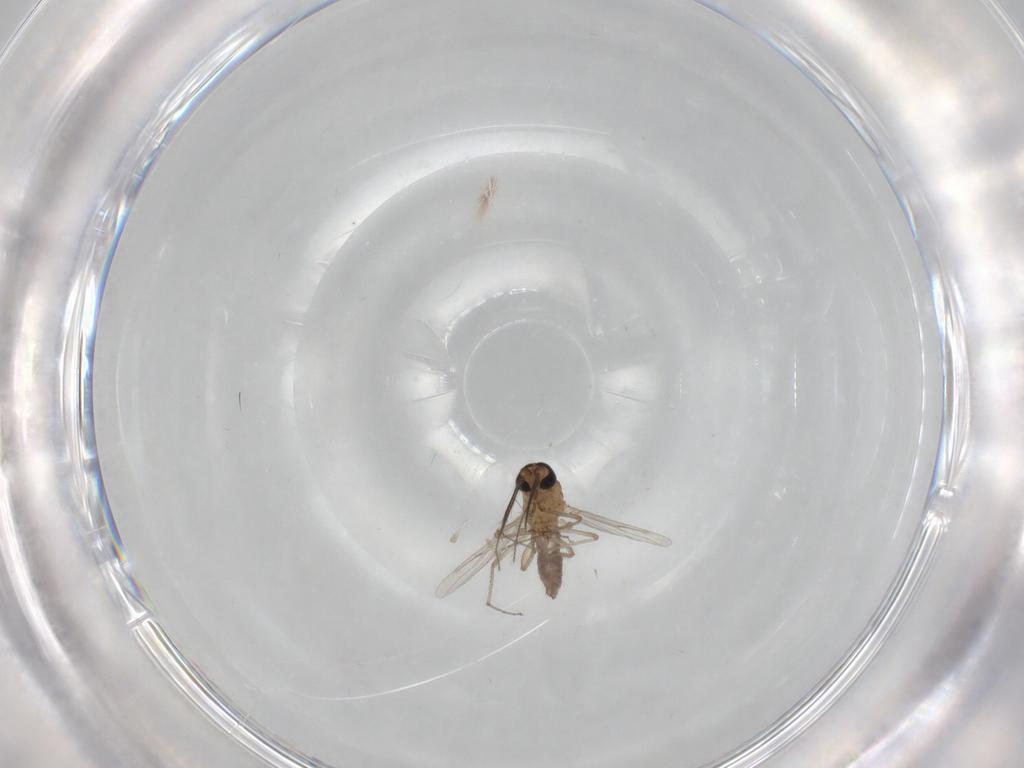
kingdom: Animalia
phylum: Arthropoda
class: Insecta
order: Diptera
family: Cecidomyiidae
